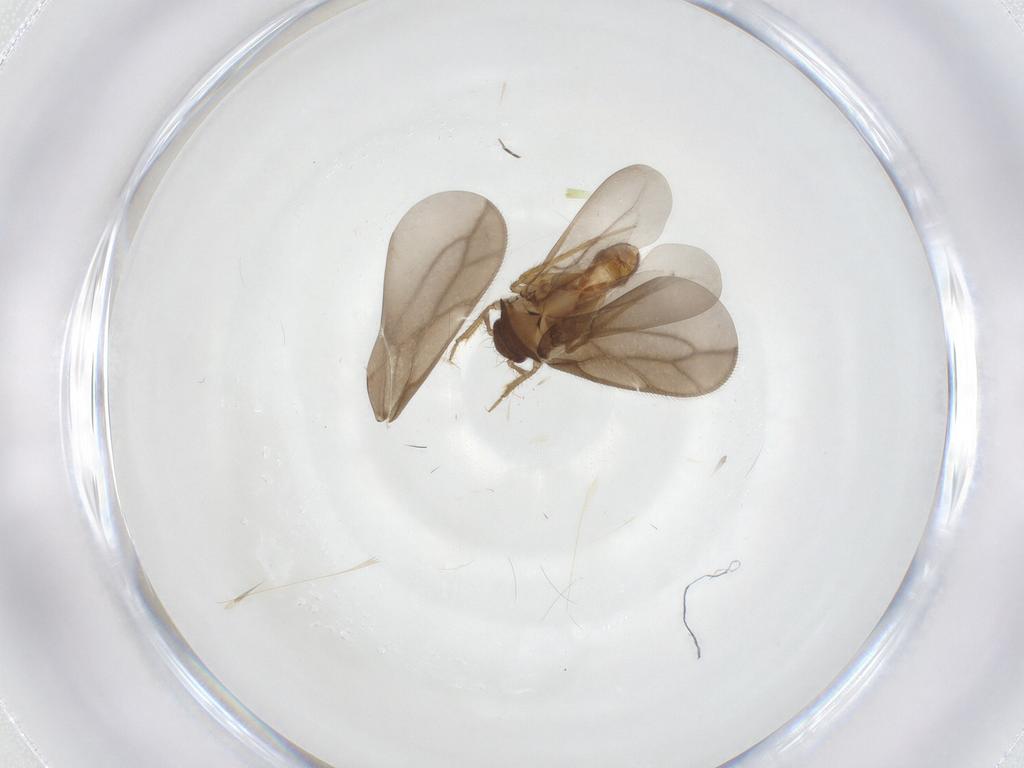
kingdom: Animalia
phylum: Arthropoda
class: Insecta
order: Hemiptera
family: Ceratocombidae
